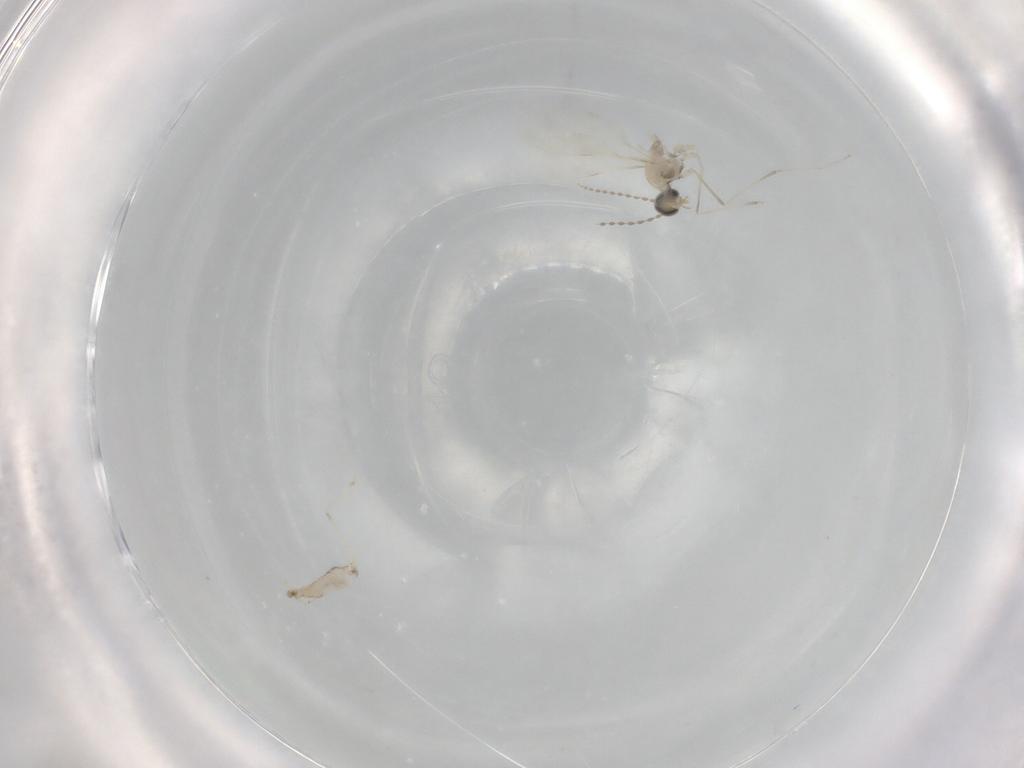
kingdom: Animalia
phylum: Arthropoda
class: Insecta
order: Diptera
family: Cecidomyiidae
